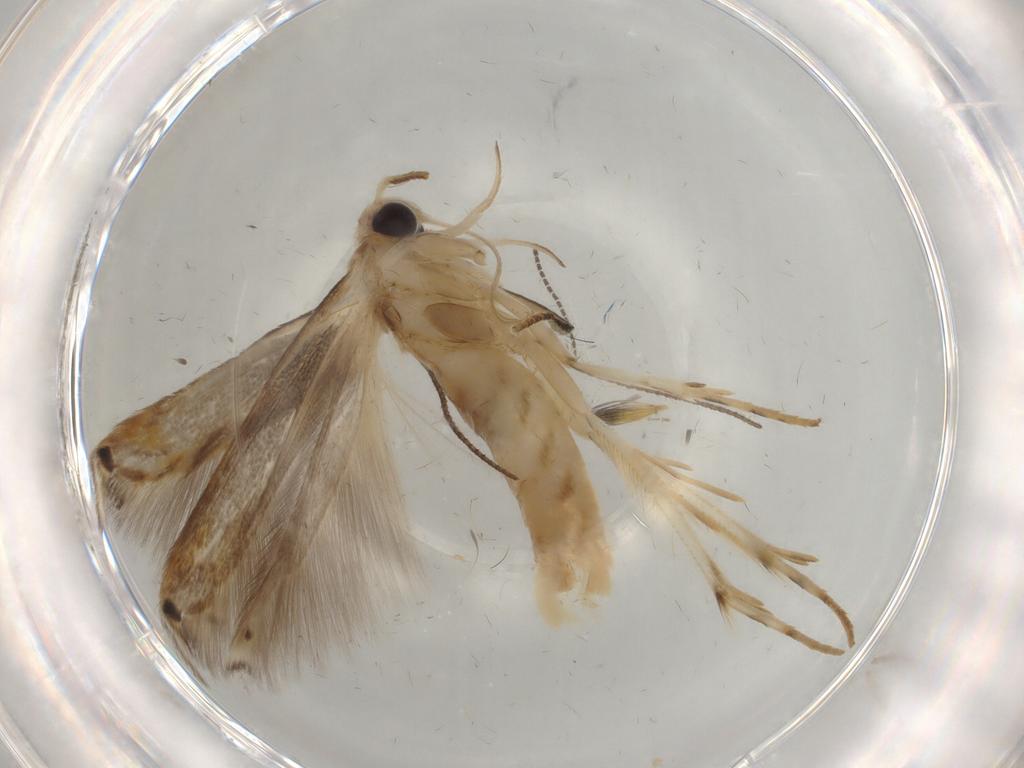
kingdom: Animalia
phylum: Arthropoda
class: Insecta
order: Lepidoptera
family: Gelechiidae
